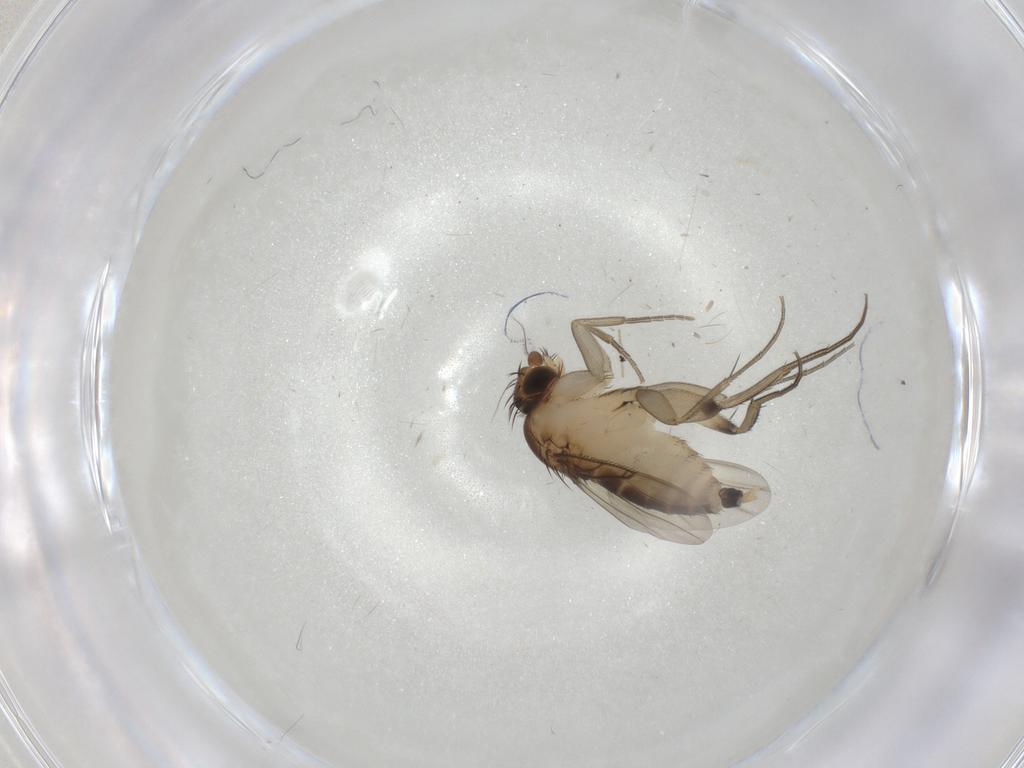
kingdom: Animalia
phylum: Arthropoda
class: Insecta
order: Diptera
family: Phoridae
